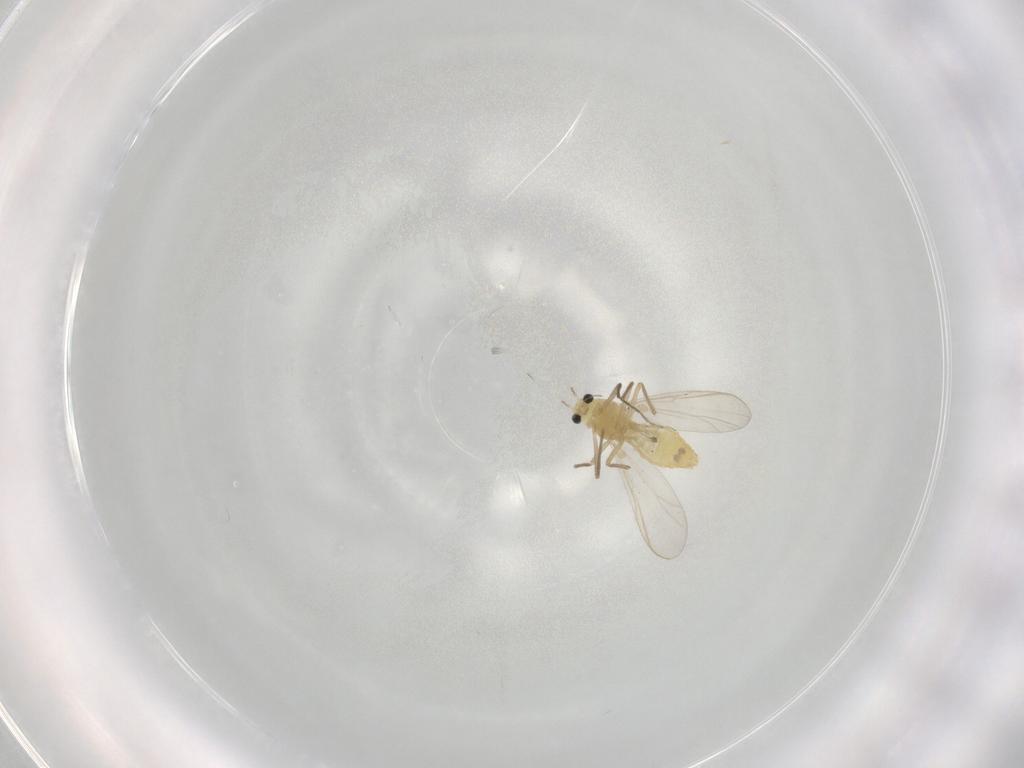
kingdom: Animalia
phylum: Arthropoda
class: Insecta
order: Diptera
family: Chironomidae
